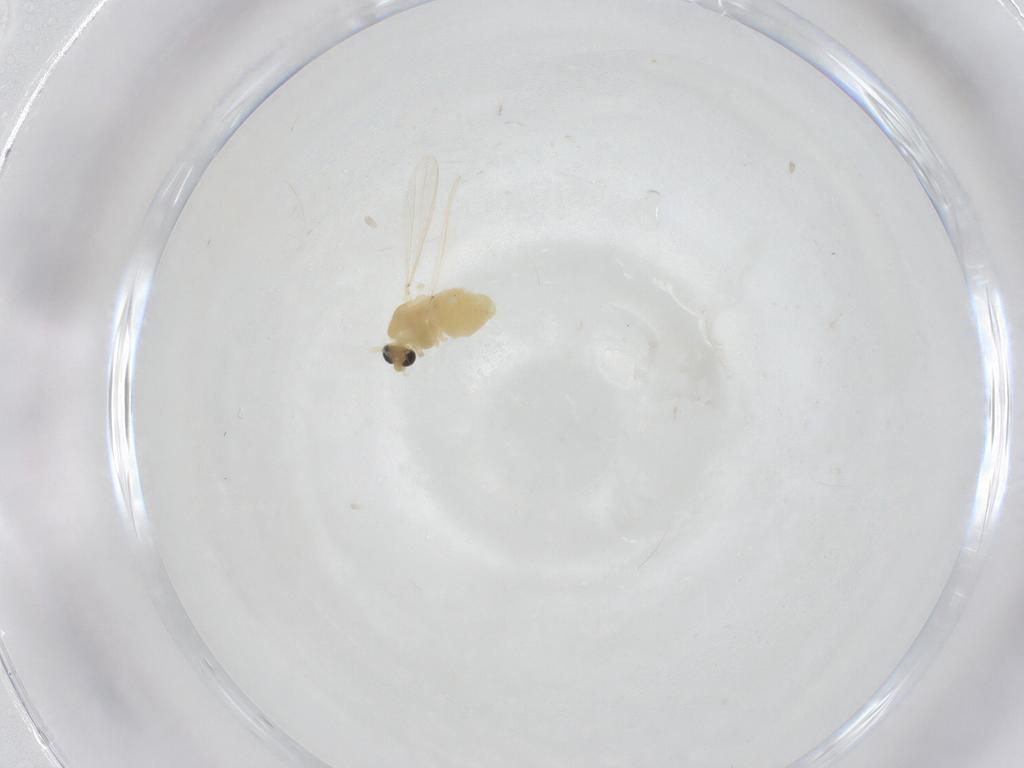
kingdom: Animalia
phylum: Arthropoda
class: Insecta
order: Diptera
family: Chironomidae
